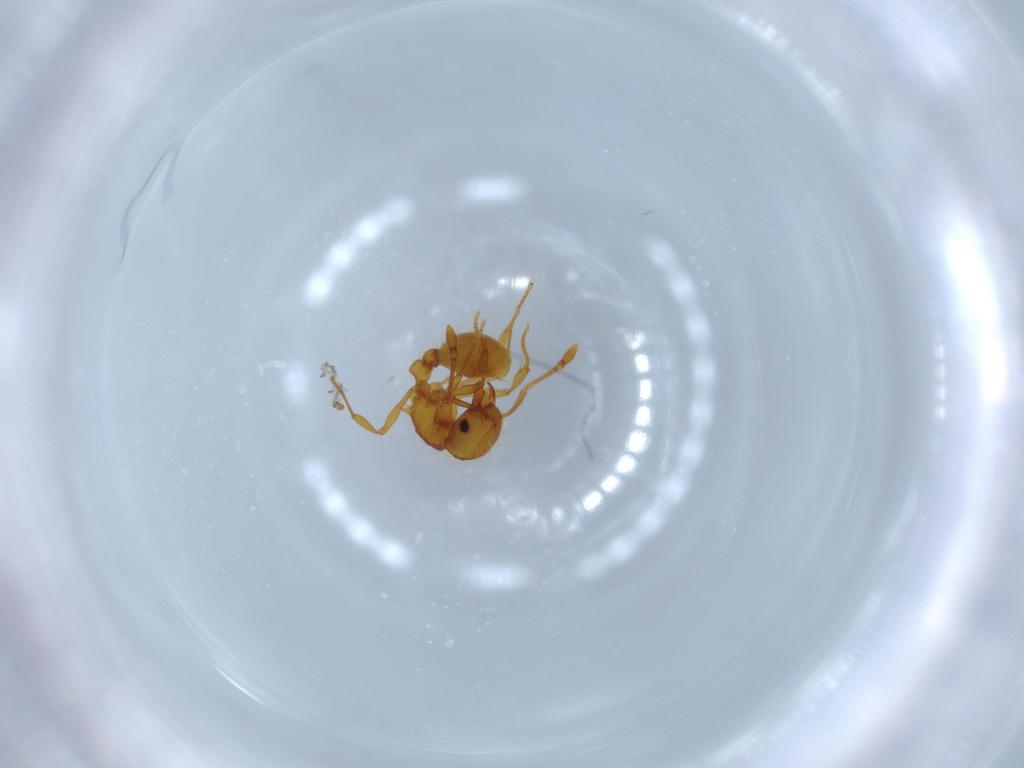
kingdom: Animalia
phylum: Arthropoda
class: Insecta
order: Hymenoptera
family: Formicidae
